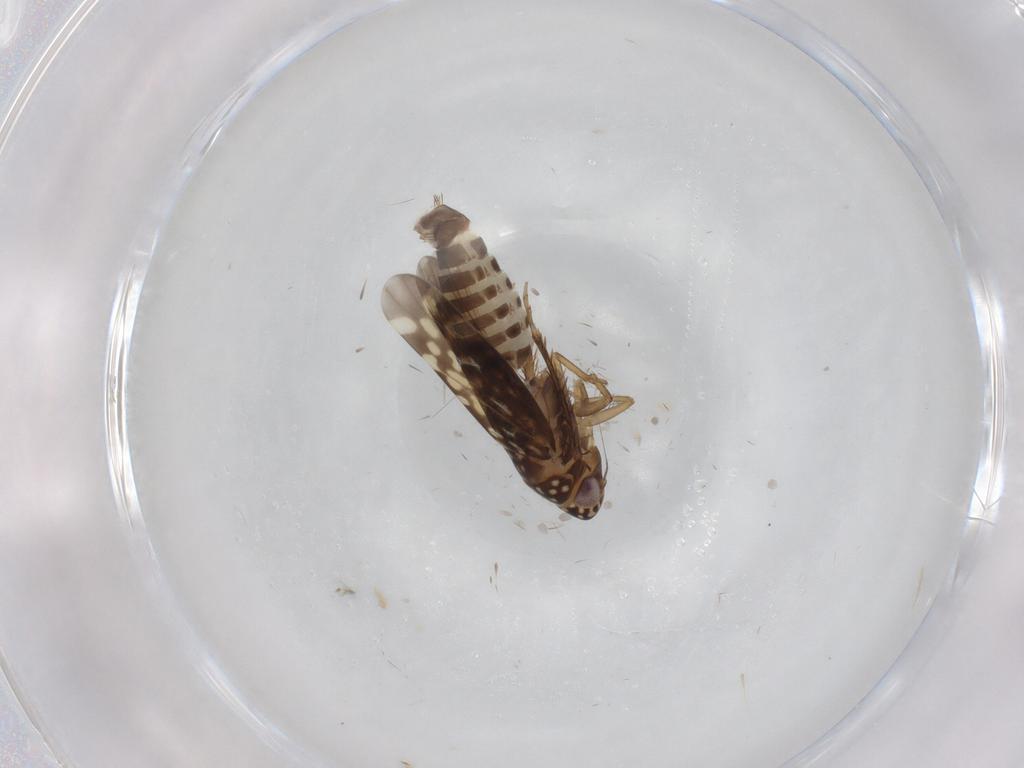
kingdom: Animalia
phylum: Arthropoda
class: Insecta
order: Hemiptera
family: Cicadellidae
